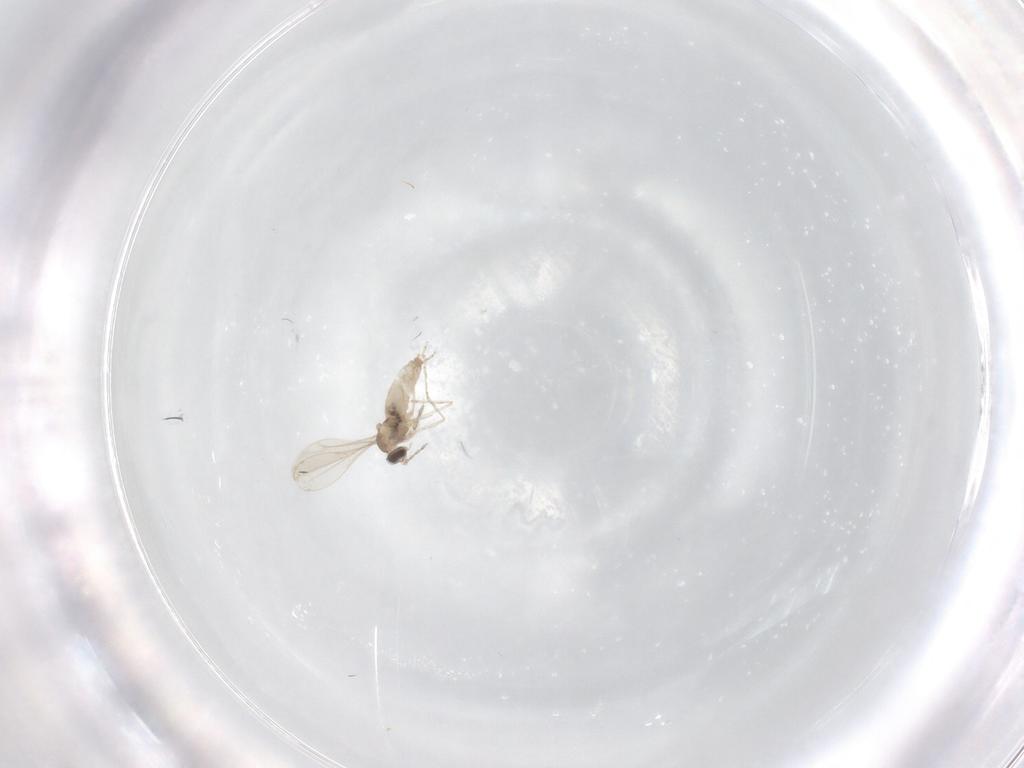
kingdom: Animalia
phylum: Arthropoda
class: Insecta
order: Diptera
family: Cecidomyiidae
